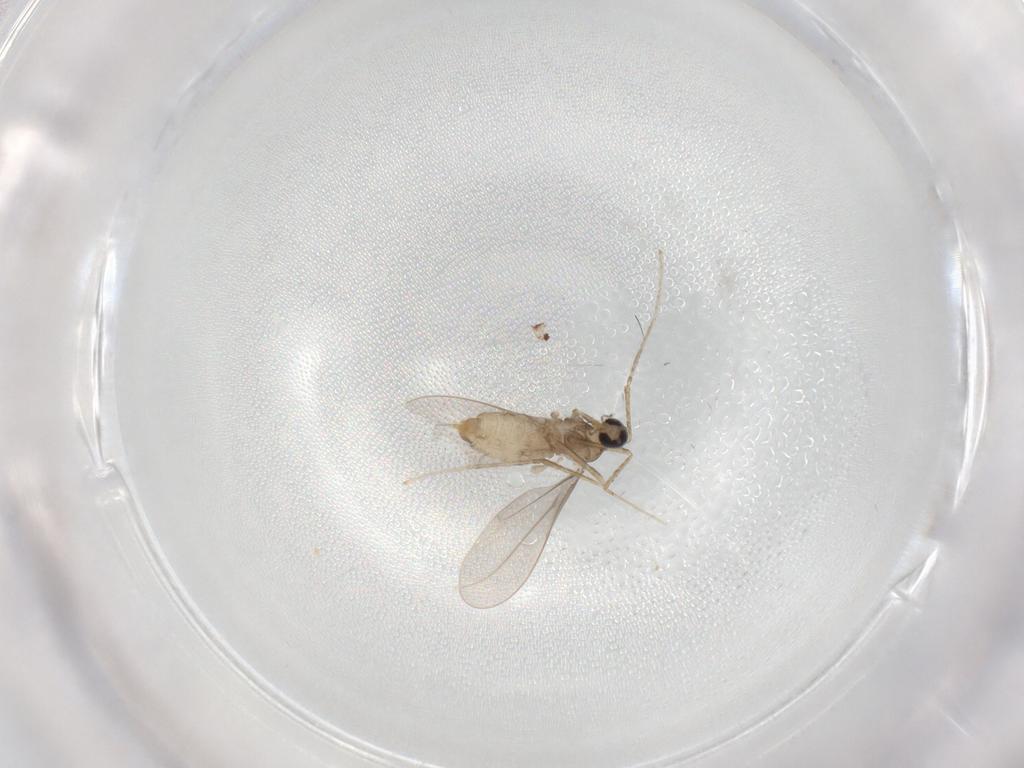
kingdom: Animalia
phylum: Arthropoda
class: Insecta
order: Diptera
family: Cecidomyiidae
